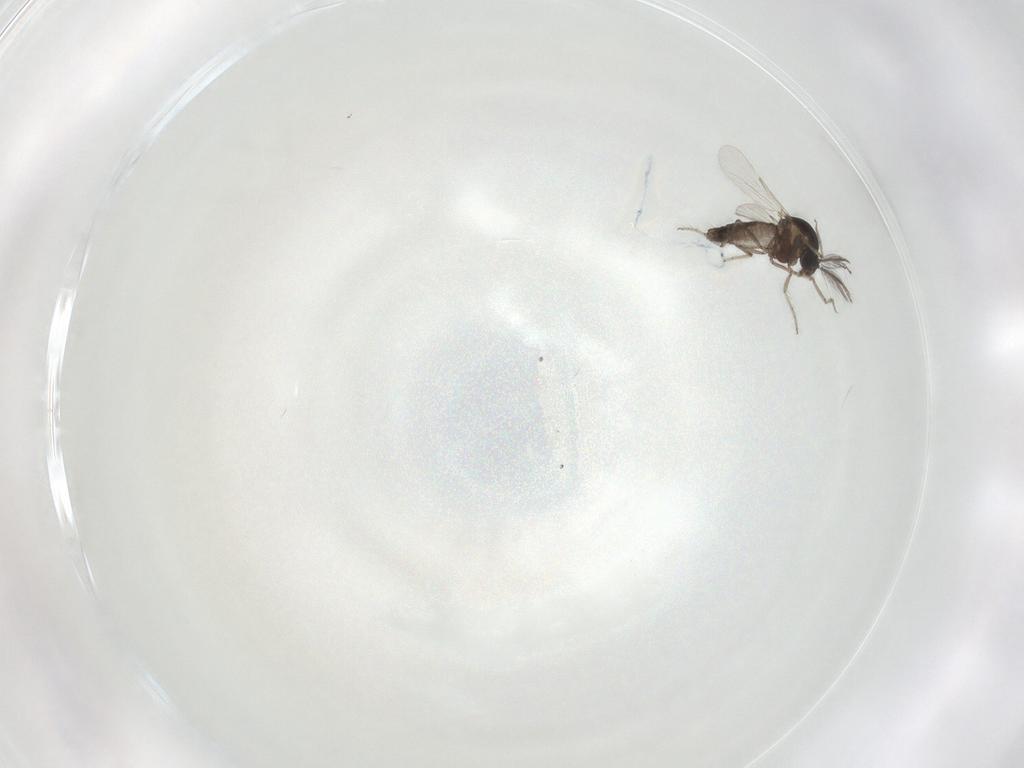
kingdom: Animalia
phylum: Arthropoda
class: Insecta
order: Diptera
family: Ceratopogonidae
